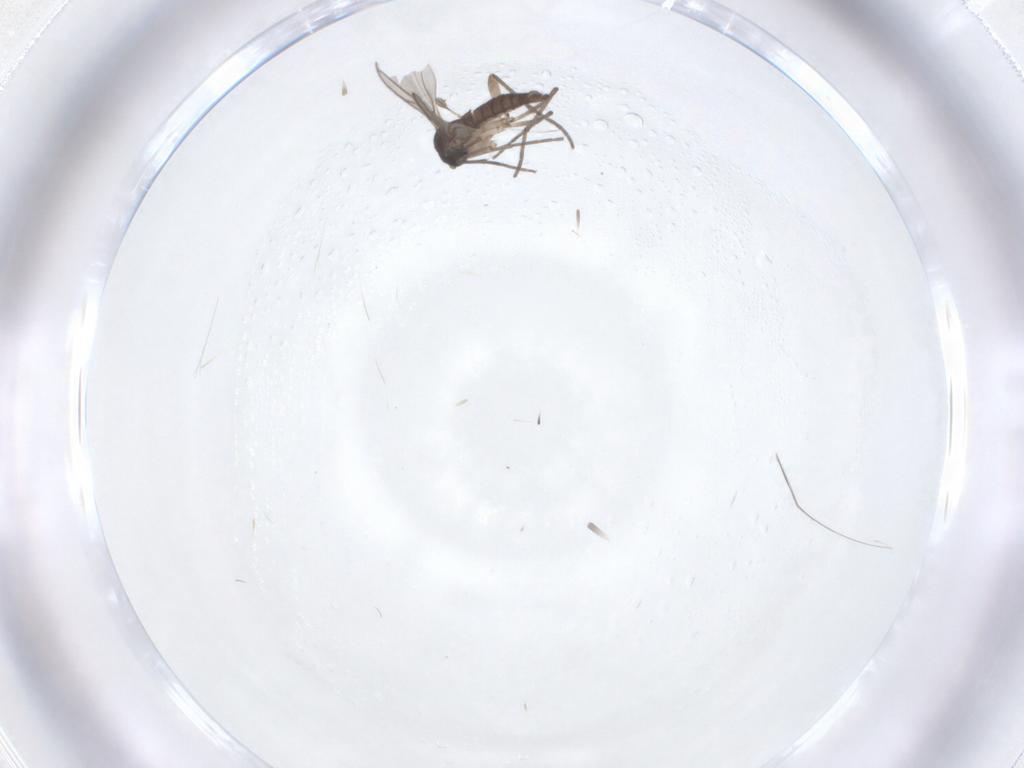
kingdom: Animalia
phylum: Arthropoda
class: Insecta
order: Diptera
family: Sciaridae
